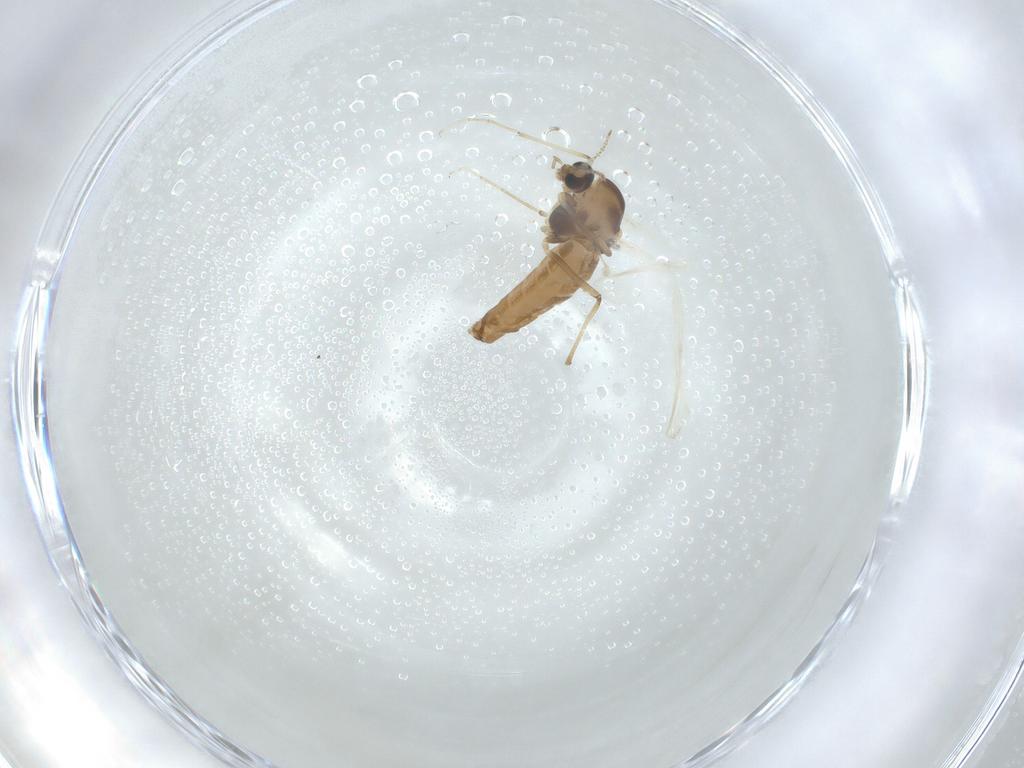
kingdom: Animalia
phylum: Arthropoda
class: Insecta
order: Diptera
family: Chironomidae
